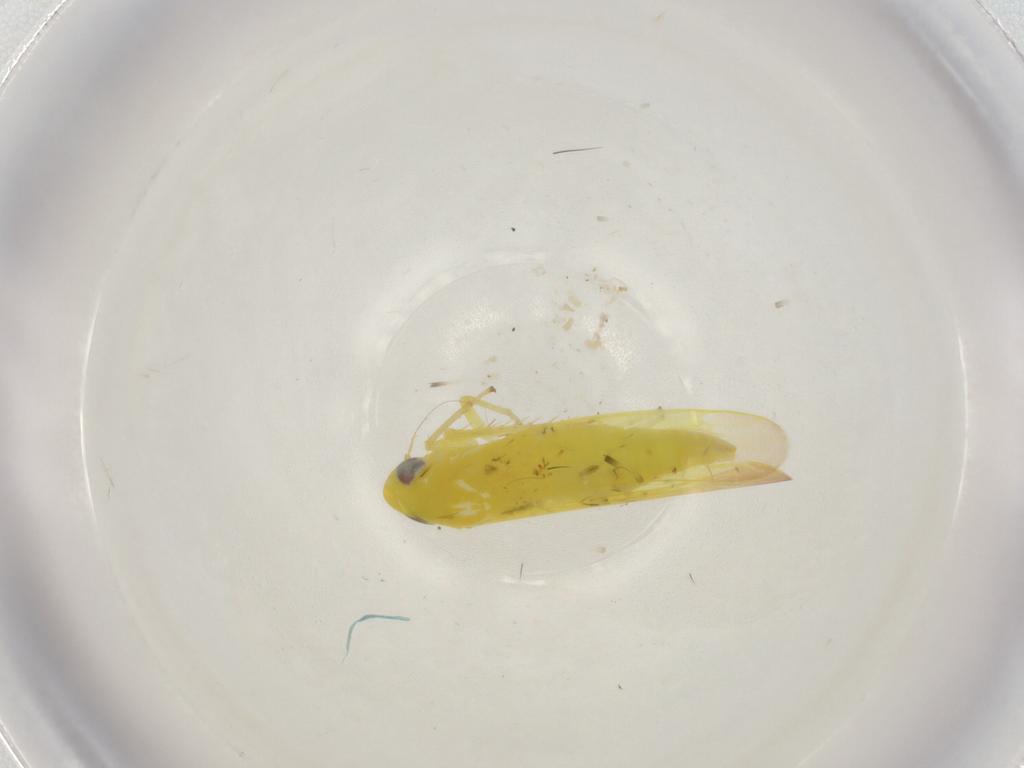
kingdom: Animalia
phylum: Arthropoda
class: Insecta
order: Hemiptera
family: Cicadellidae
